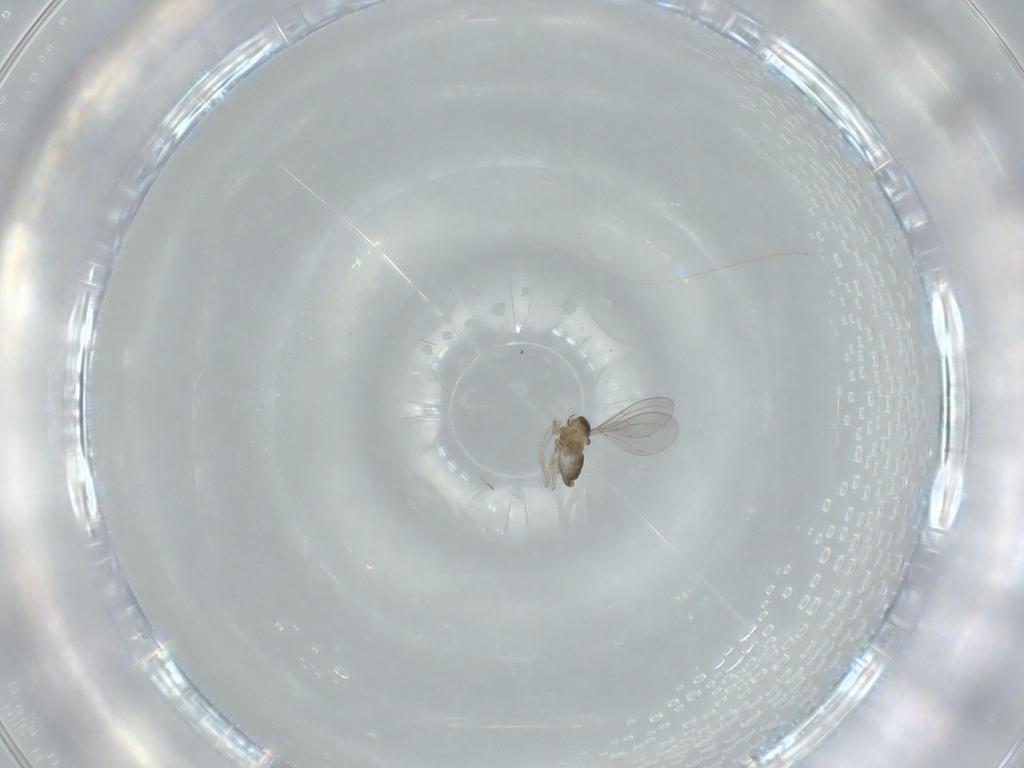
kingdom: Animalia
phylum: Arthropoda
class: Insecta
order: Diptera
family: Cecidomyiidae
